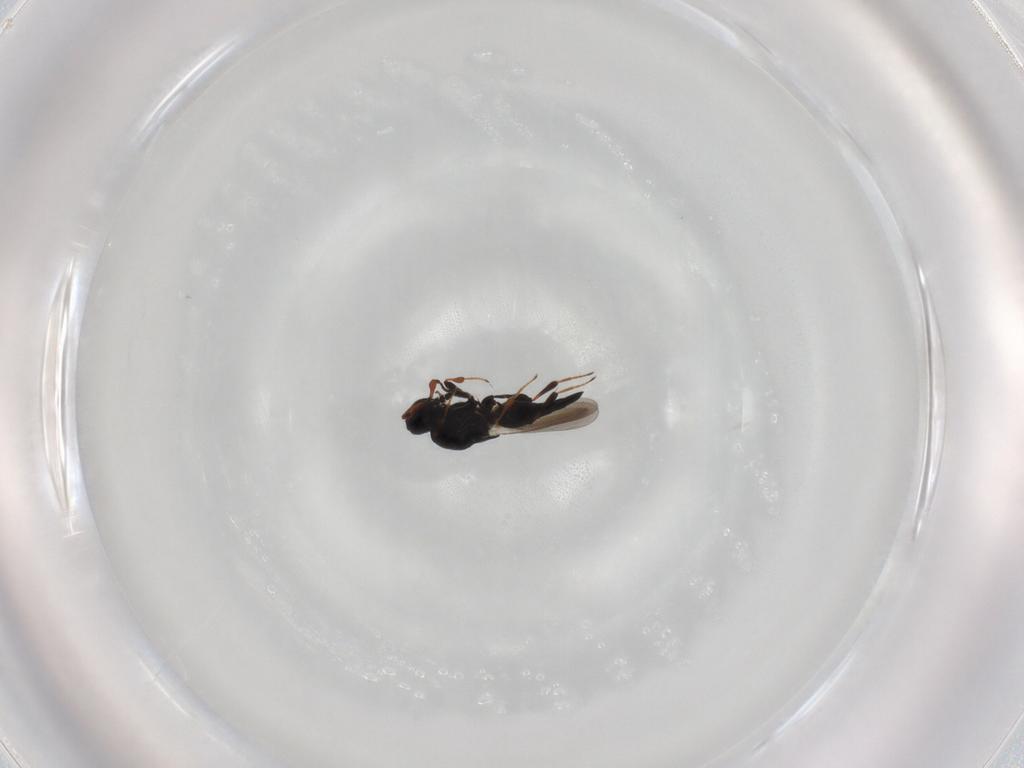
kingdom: Animalia
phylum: Arthropoda
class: Insecta
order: Hymenoptera
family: Platygastridae
